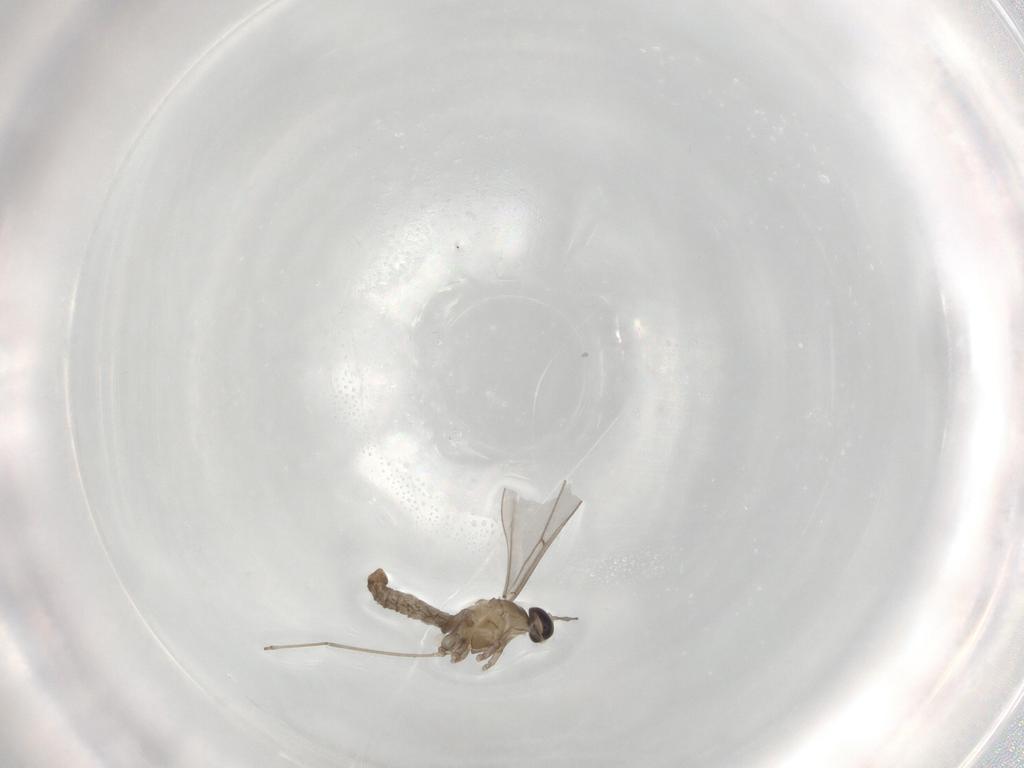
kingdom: Animalia
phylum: Arthropoda
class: Insecta
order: Diptera
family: Cecidomyiidae
